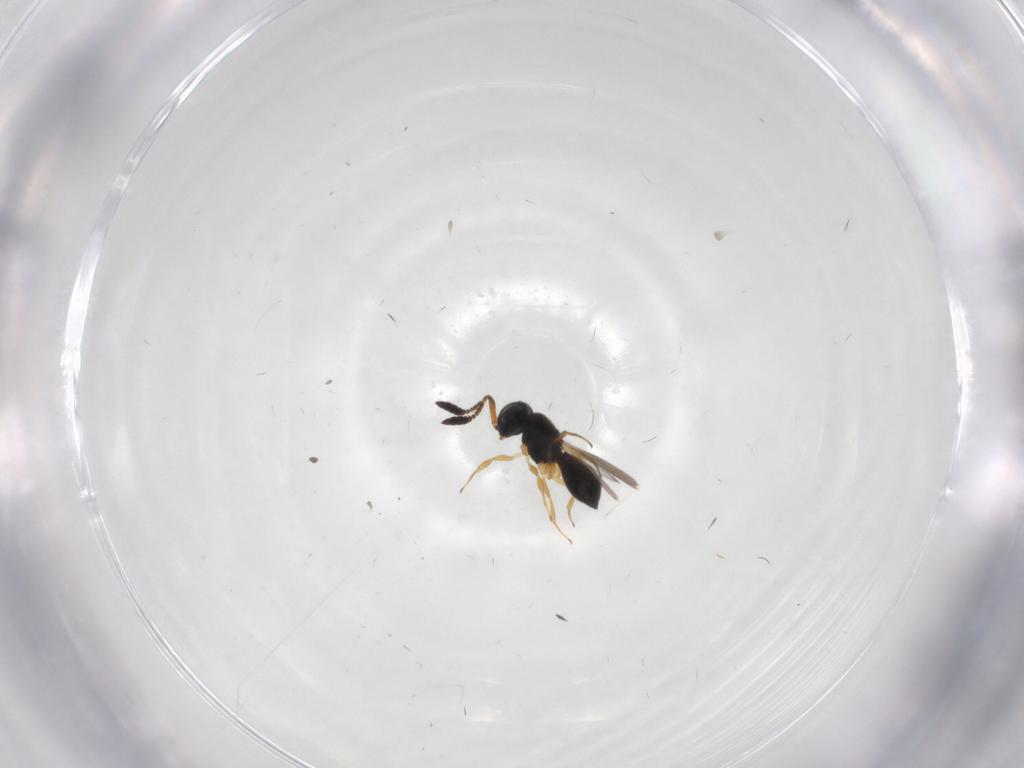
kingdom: Animalia
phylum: Arthropoda
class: Insecta
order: Hymenoptera
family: Scelionidae
